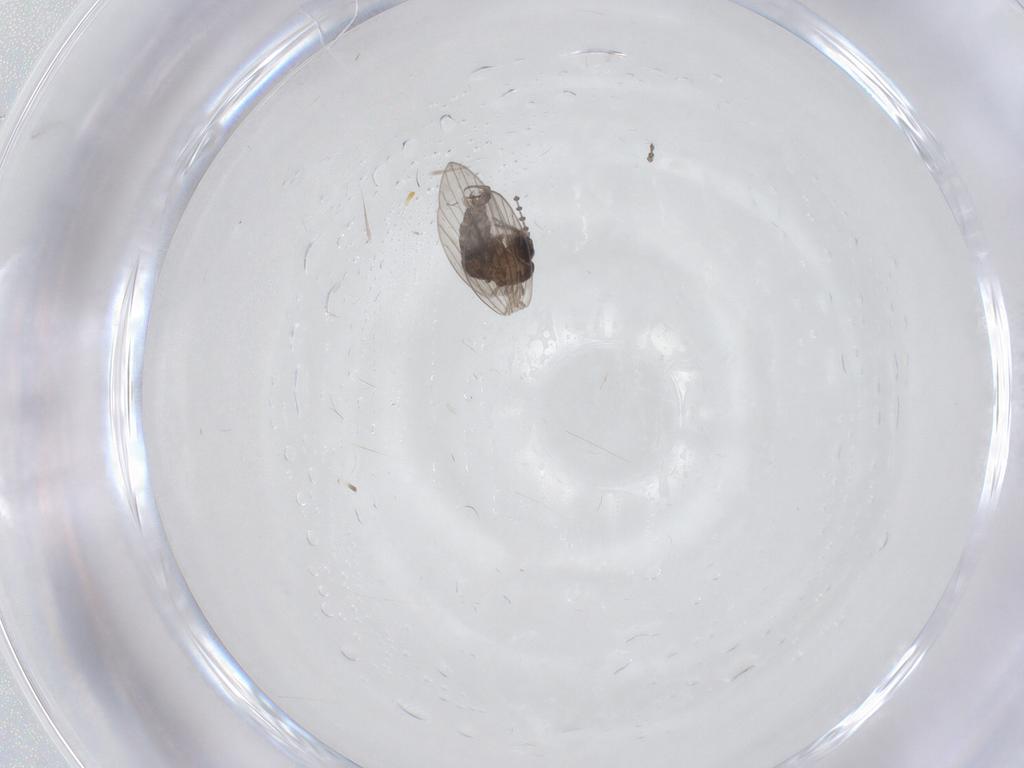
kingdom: Animalia
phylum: Arthropoda
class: Insecta
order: Diptera
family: Psychodidae
